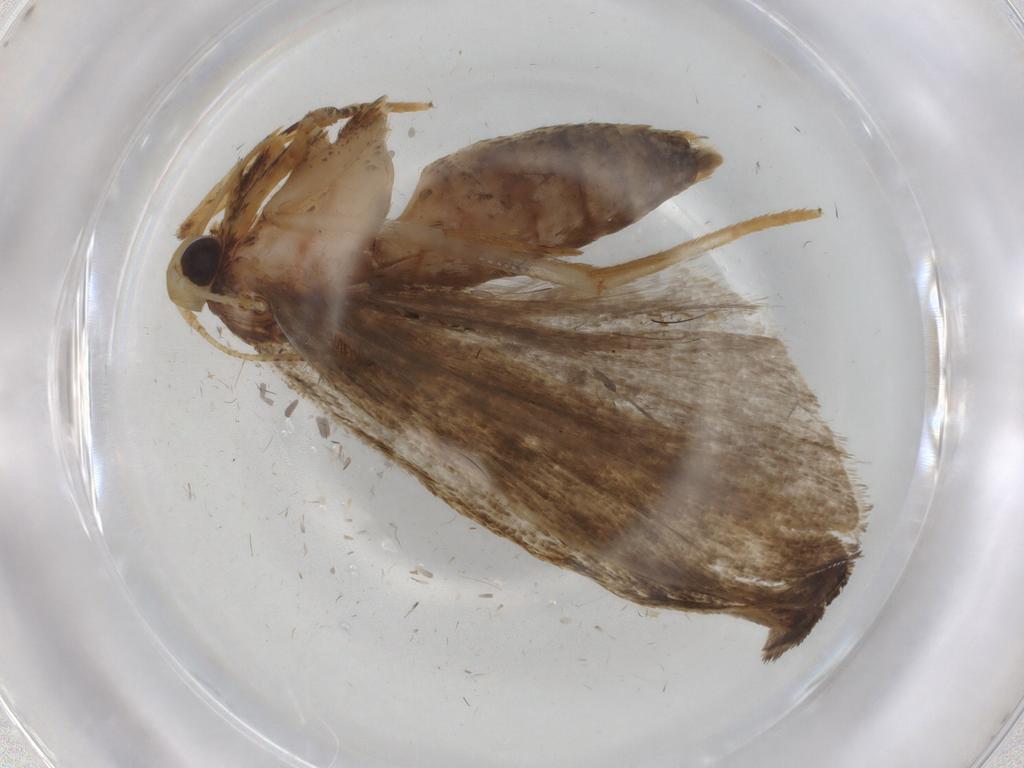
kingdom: Animalia
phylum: Arthropoda
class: Insecta
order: Lepidoptera
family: Autostichidae
